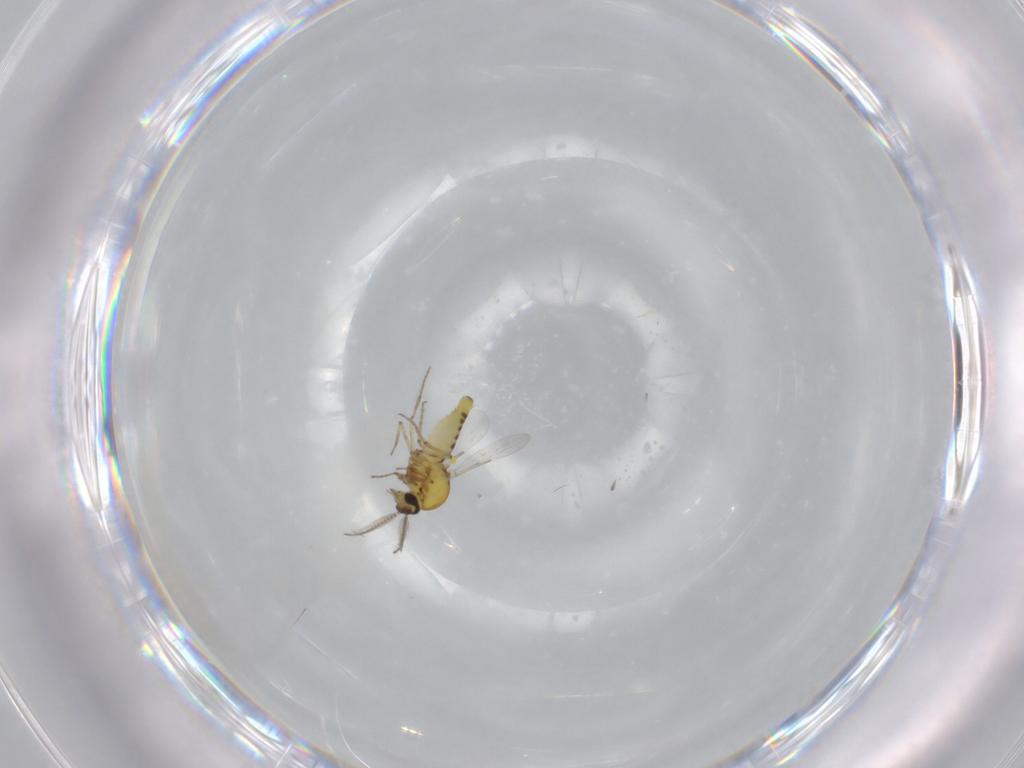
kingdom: Animalia
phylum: Arthropoda
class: Insecta
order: Diptera
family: Ceratopogonidae
